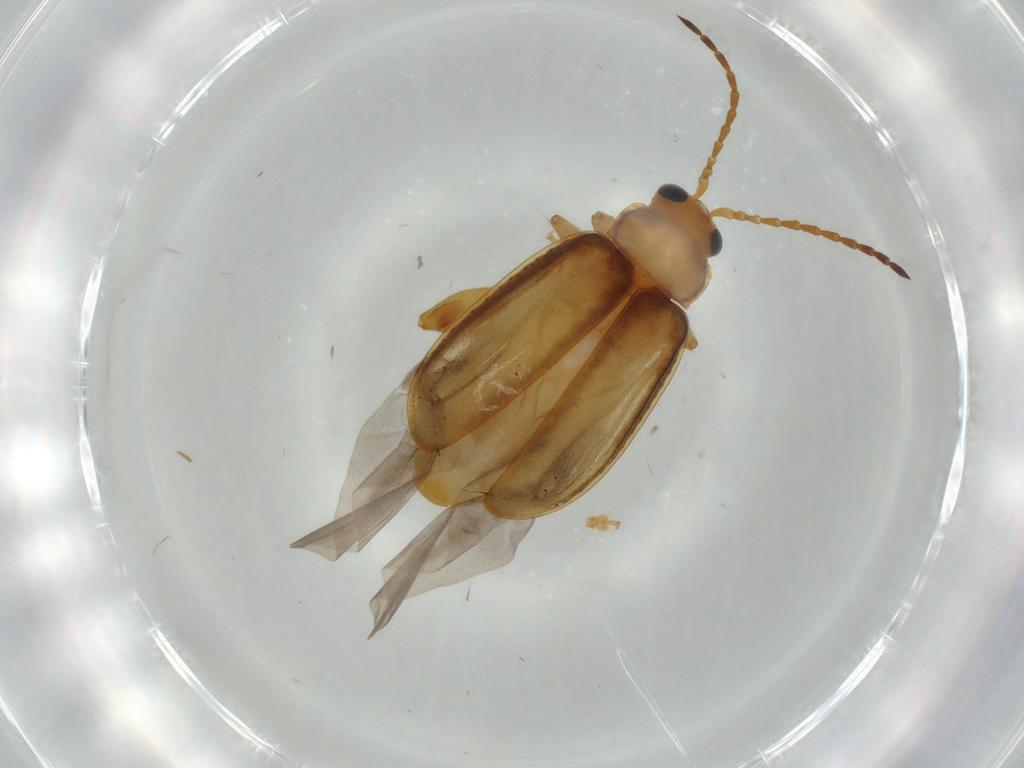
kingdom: Animalia
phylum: Arthropoda
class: Insecta
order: Coleoptera
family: Chrysomelidae
